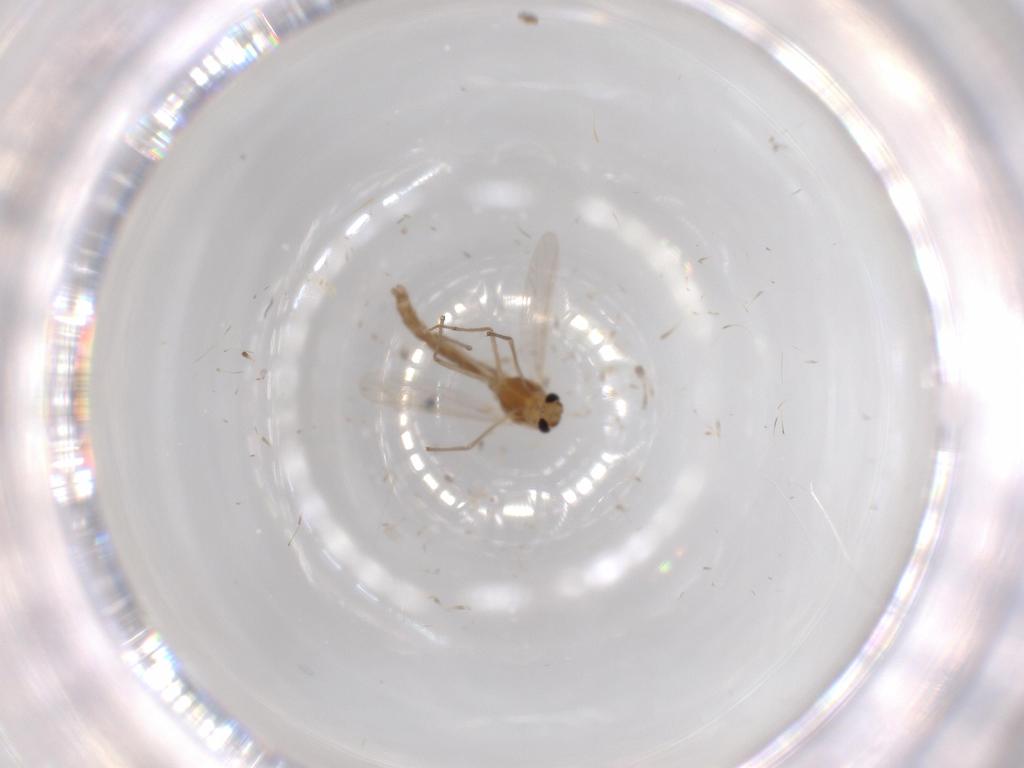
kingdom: Animalia
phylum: Arthropoda
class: Insecta
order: Diptera
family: Chironomidae
